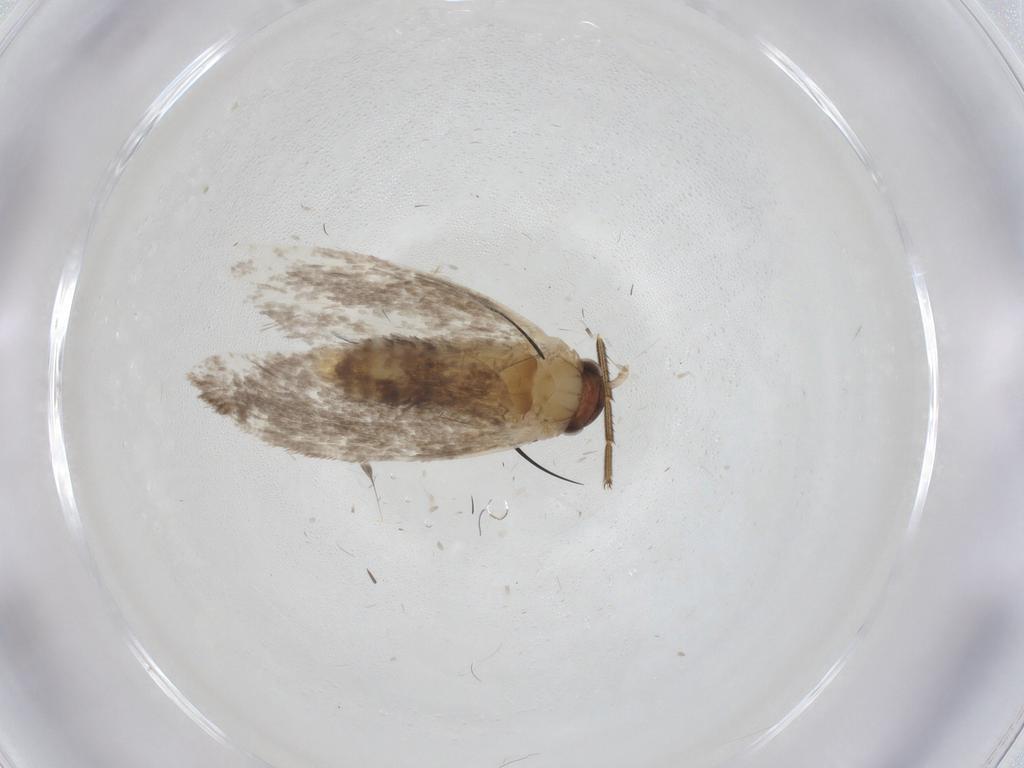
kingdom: Animalia
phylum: Arthropoda
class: Insecta
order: Lepidoptera
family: Dryadaulidae
